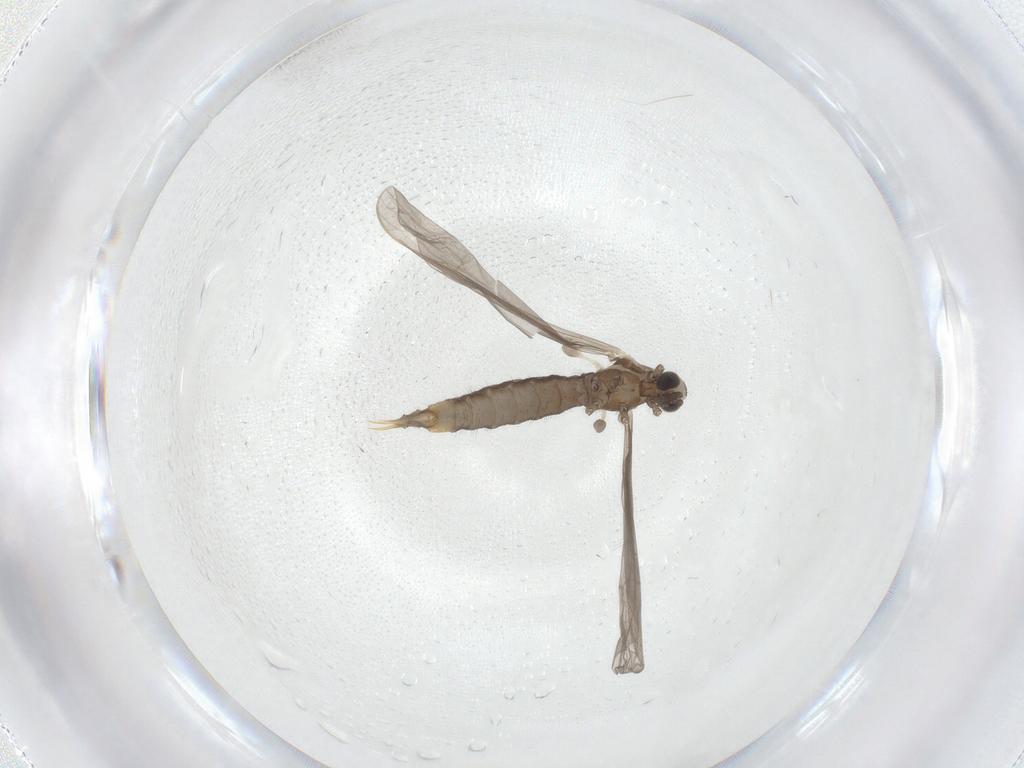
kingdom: Animalia
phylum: Arthropoda
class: Insecta
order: Diptera
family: Limoniidae
